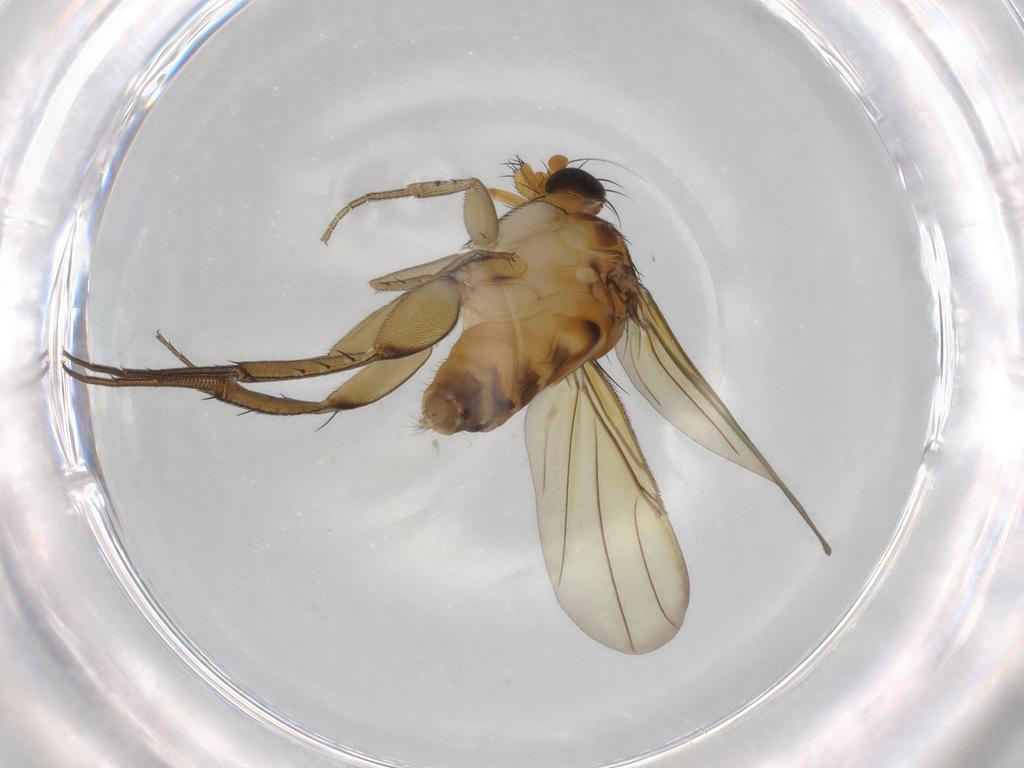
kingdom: Animalia
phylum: Arthropoda
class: Insecta
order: Diptera
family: Phoridae
